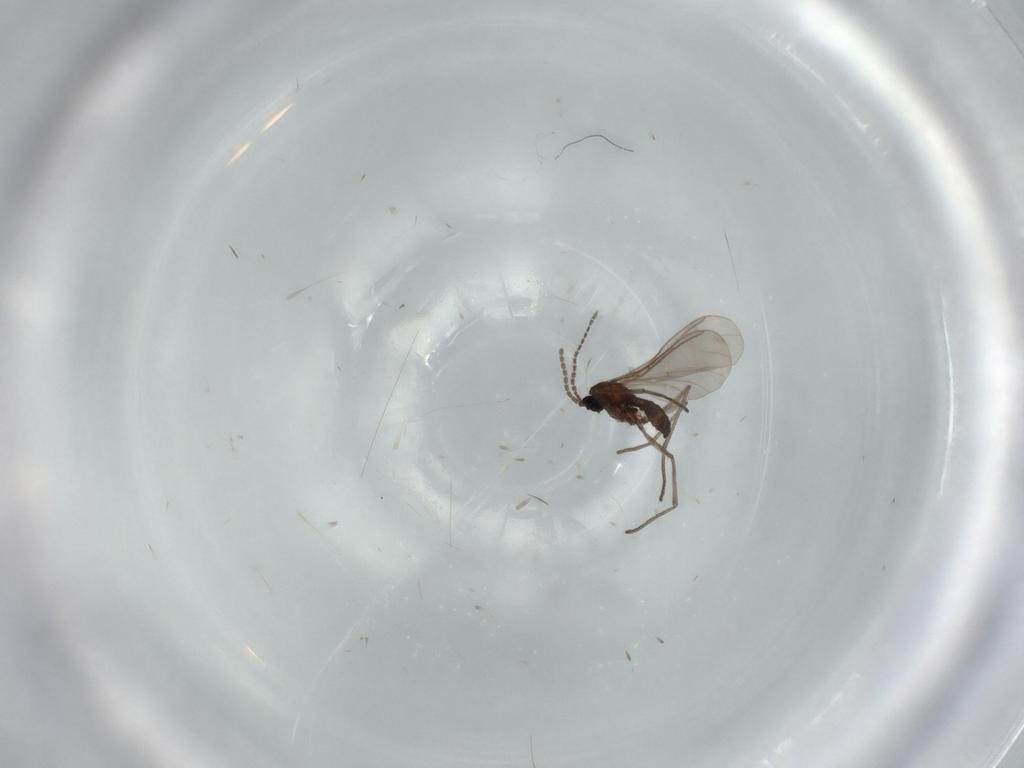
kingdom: Animalia
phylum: Arthropoda
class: Insecta
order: Diptera
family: Sciaridae
